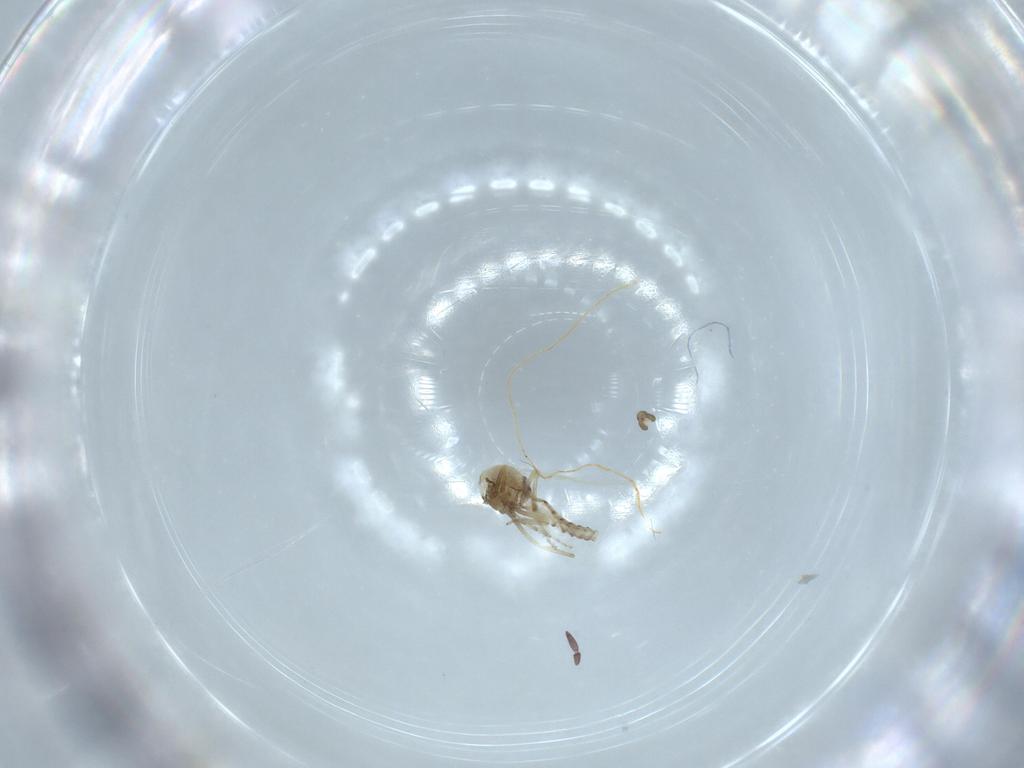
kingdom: Animalia
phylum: Arthropoda
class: Insecta
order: Diptera
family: Ceratopogonidae
